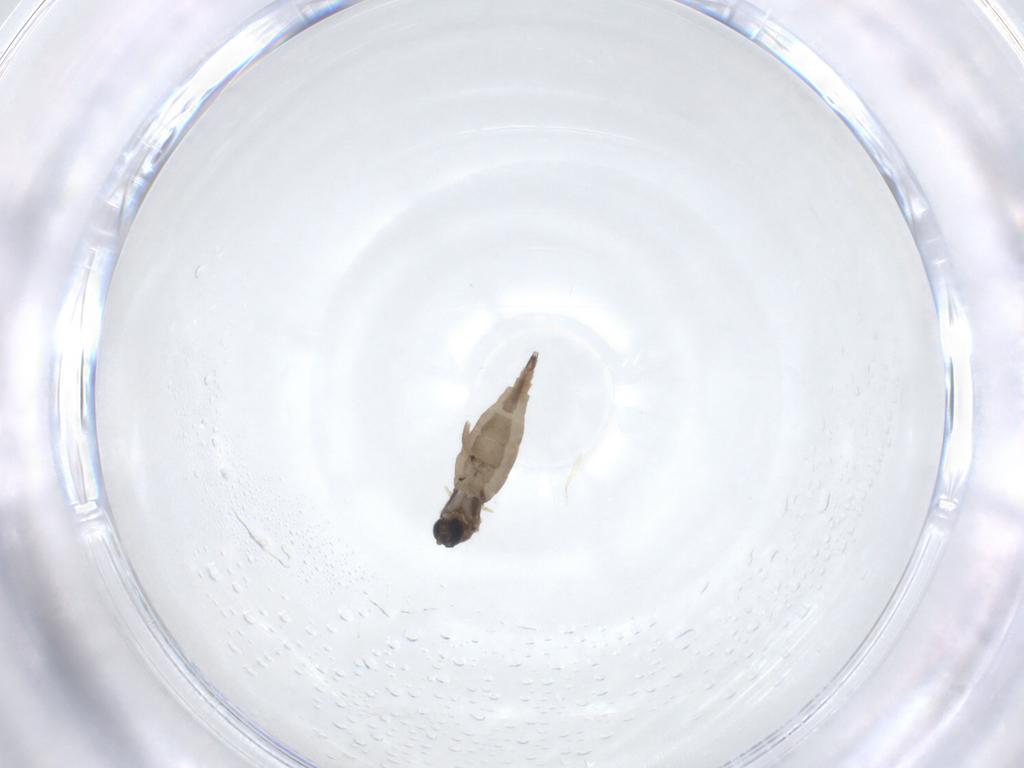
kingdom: Animalia
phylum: Arthropoda
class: Insecta
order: Diptera
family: Sciaridae
